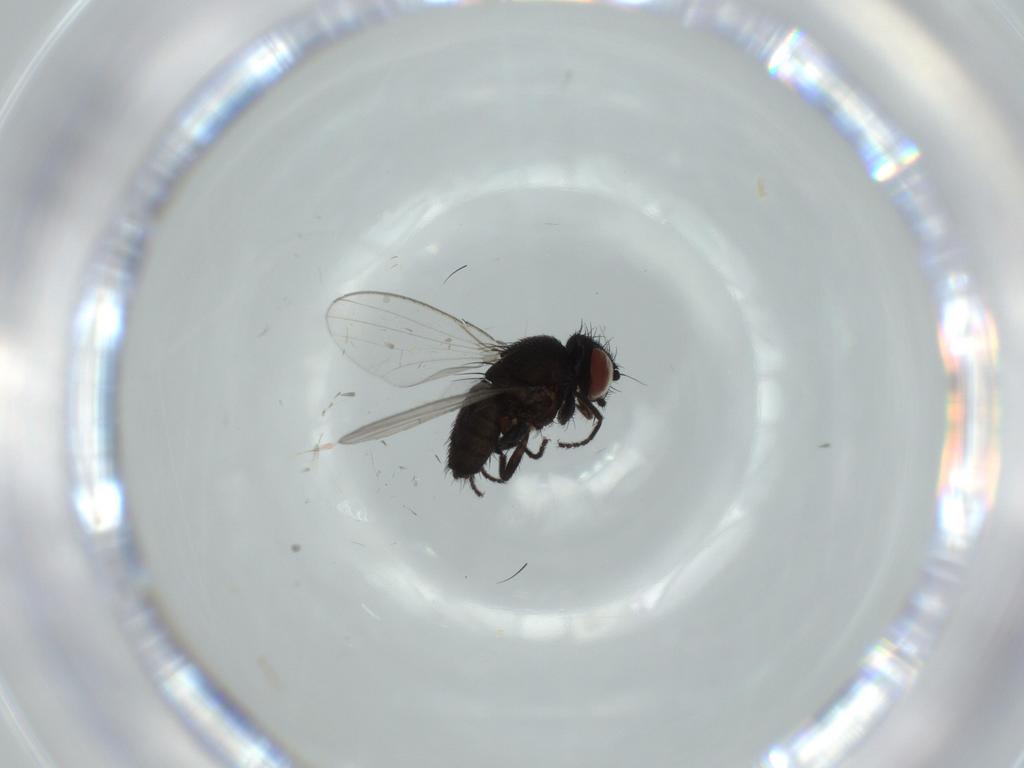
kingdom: Animalia
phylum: Arthropoda
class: Insecta
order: Diptera
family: Milichiidae
